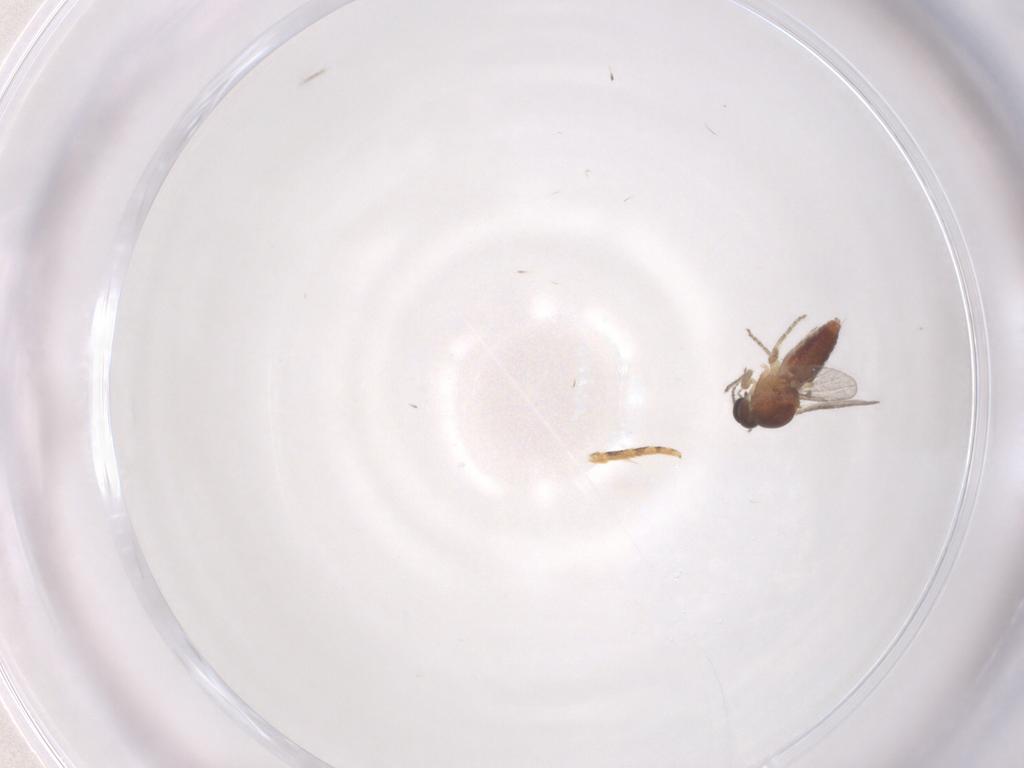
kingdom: Animalia
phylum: Arthropoda
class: Insecta
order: Diptera
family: Ceratopogonidae
